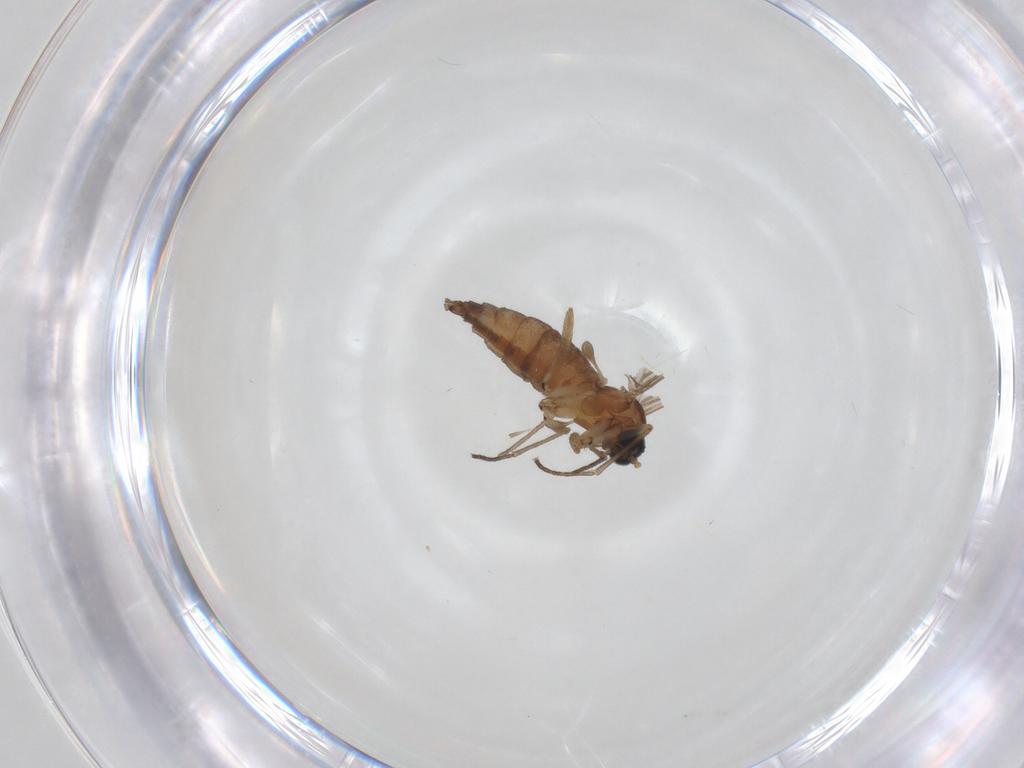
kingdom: Animalia
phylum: Arthropoda
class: Insecta
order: Diptera
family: Sciaridae
